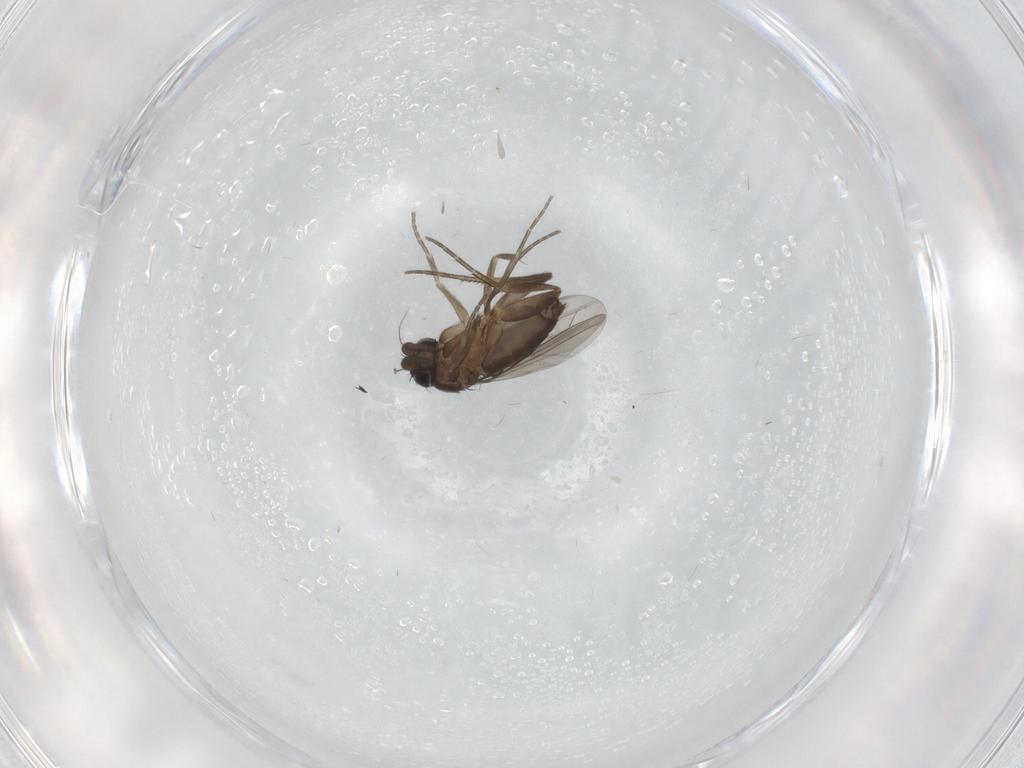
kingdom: Animalia
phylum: Arthropoda
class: Insecta
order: Diptera
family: Phoridae
